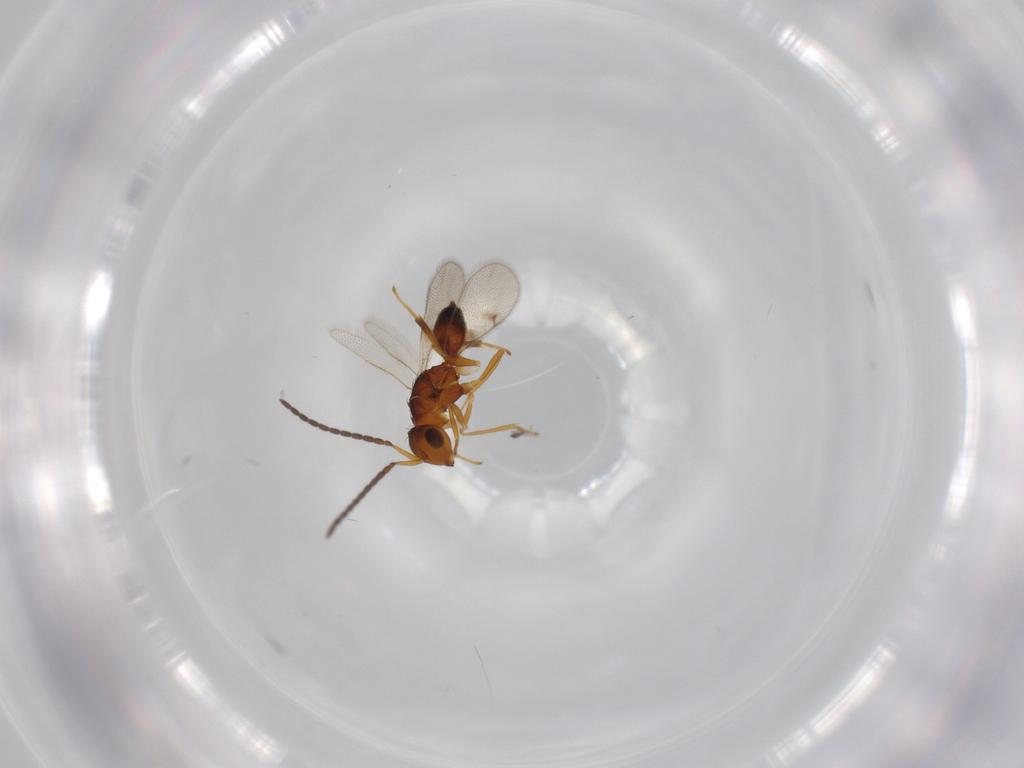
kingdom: Animalia
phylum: Arthropoda
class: Insecta
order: Hymenoptera
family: Bethylidae
